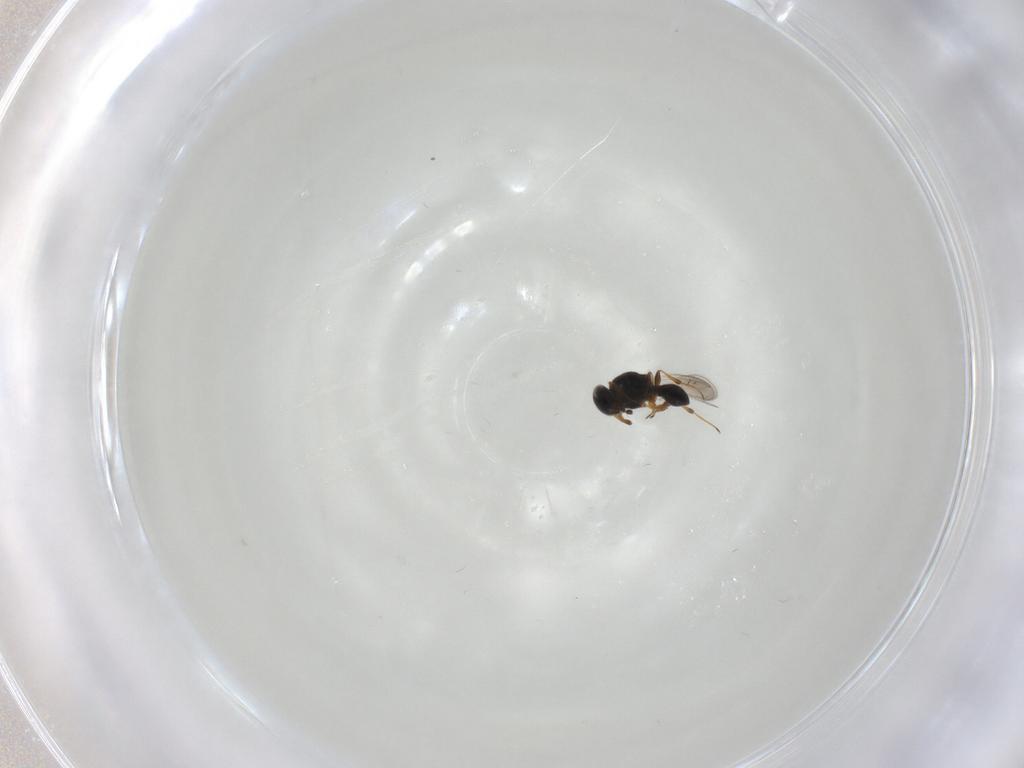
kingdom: Animalia
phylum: Arthropoda
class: Insecta
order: Hymenoptera
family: Platygastridae
